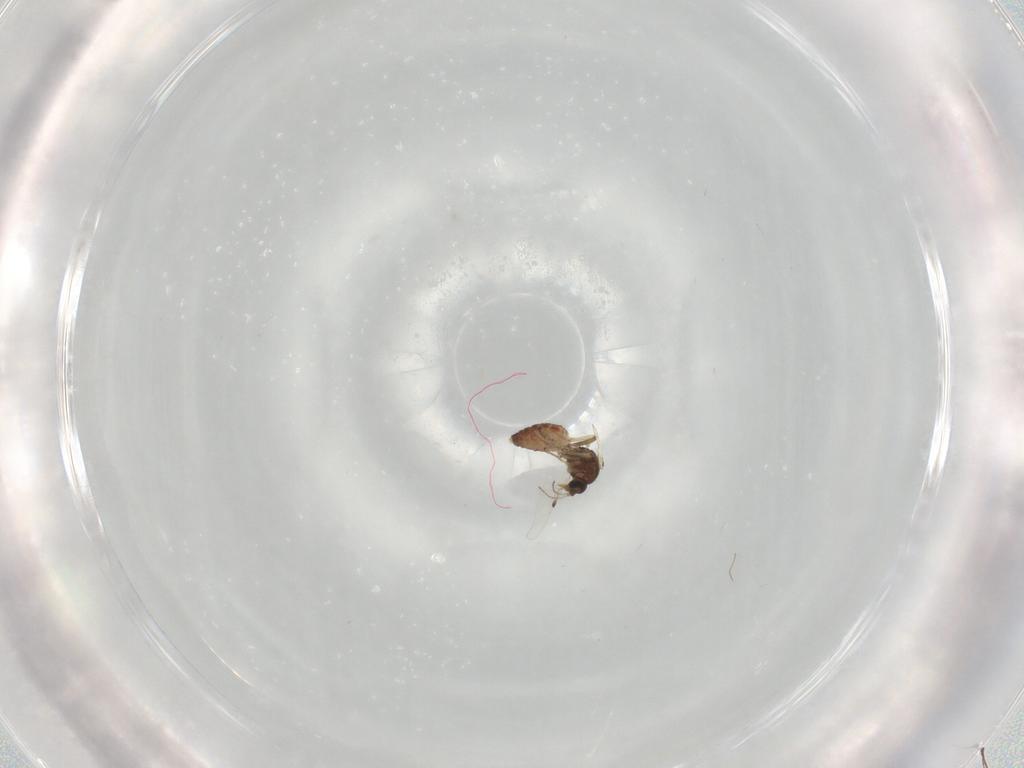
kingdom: Animalia
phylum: Arthropoda
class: Insecta
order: Diptera
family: Ceratopogonidae
